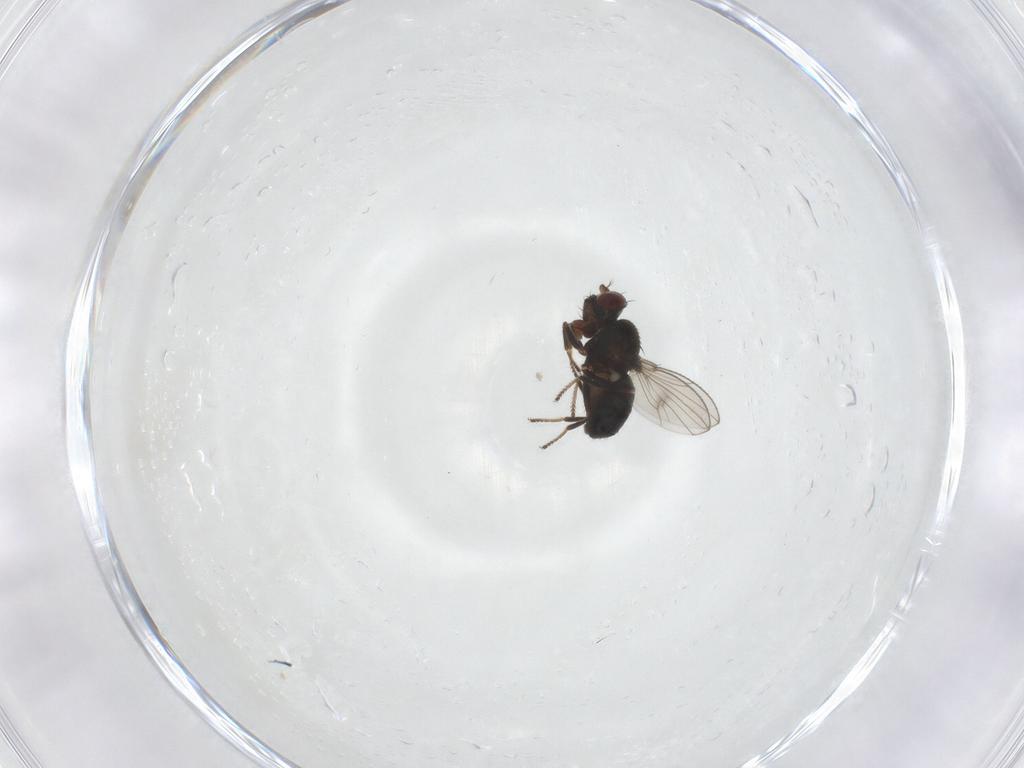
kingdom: Animalia
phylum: Arthropoda
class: Insecta
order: Diptera
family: Ephydridae
